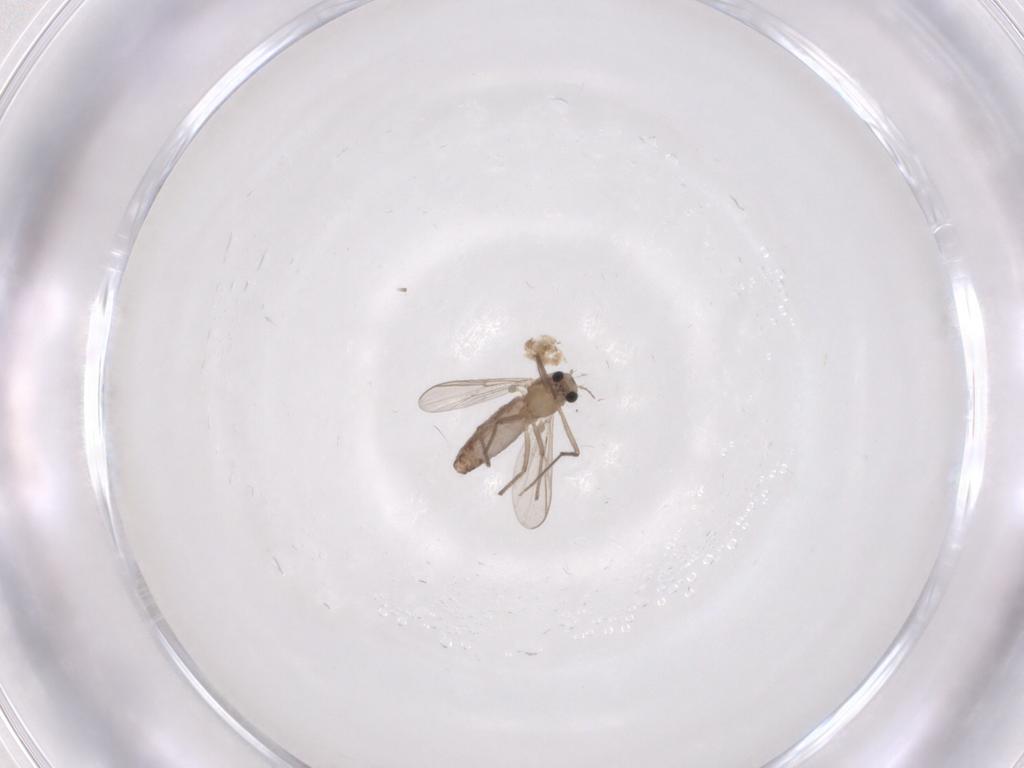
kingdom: Animalia
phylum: Arthropoda
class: Insecta
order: Diptera
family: Chironomidae
